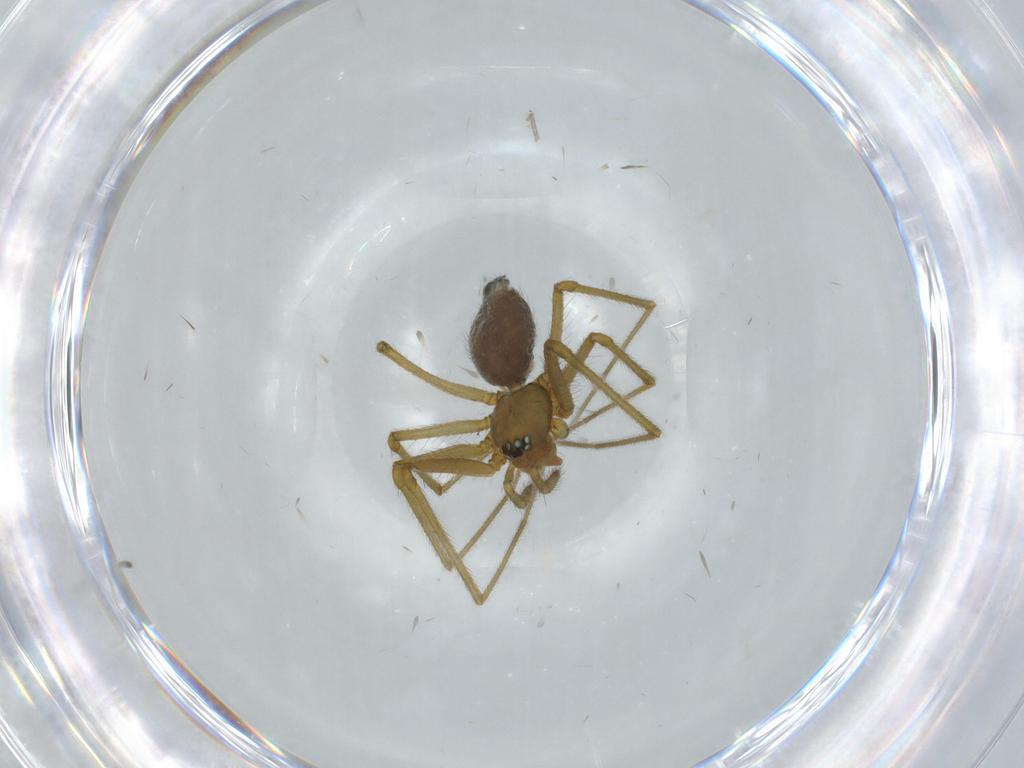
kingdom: Animalia
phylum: Arthropoda
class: Arachnida
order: Araneae
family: Linyphiidae
